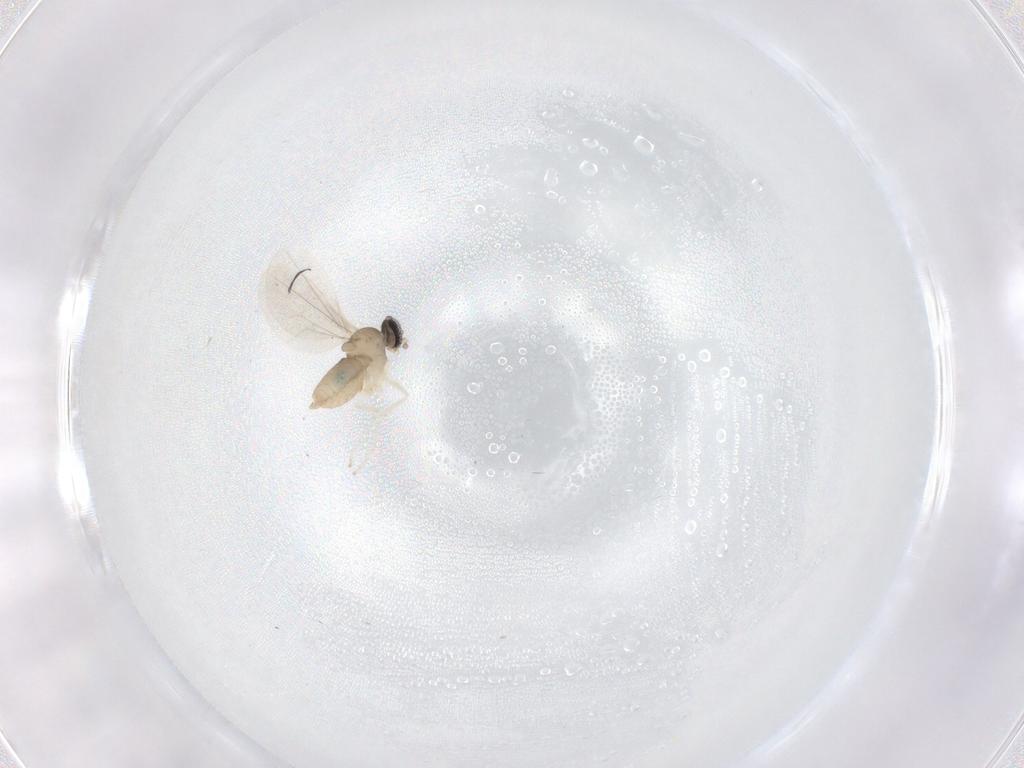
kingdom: Animalia
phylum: Arthropoda
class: Insecta
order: Diptera
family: Cecidomyiidae
